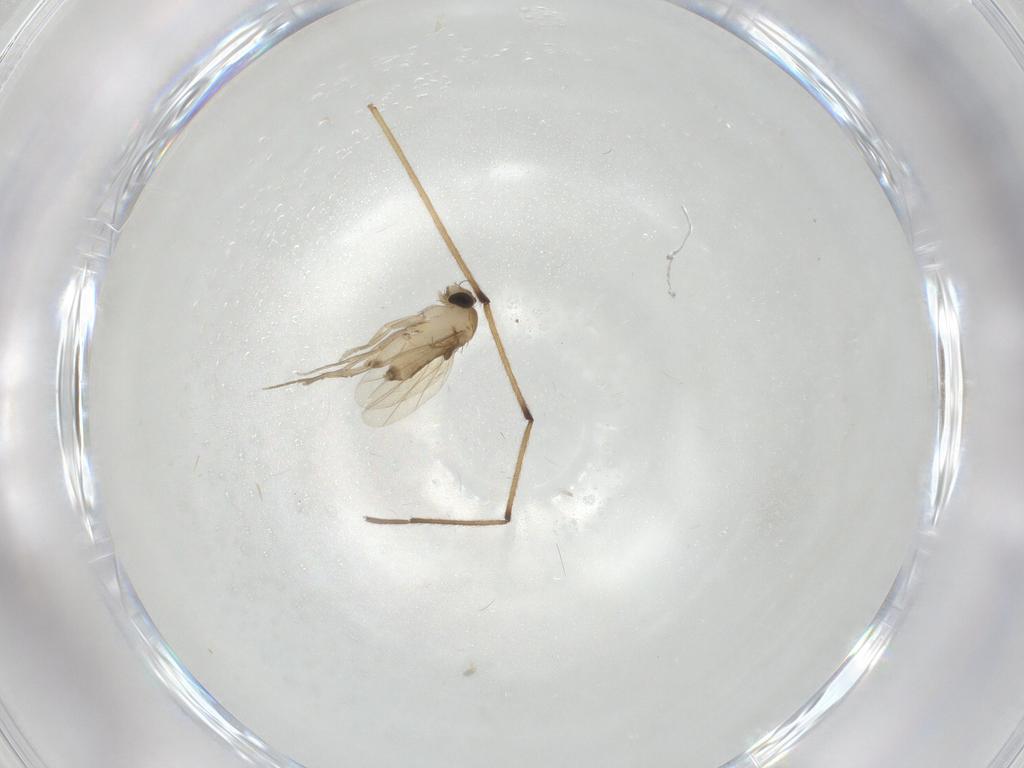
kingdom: Animalia
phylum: Arthropoda
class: Insecta
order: Diptera
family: Phoridae
